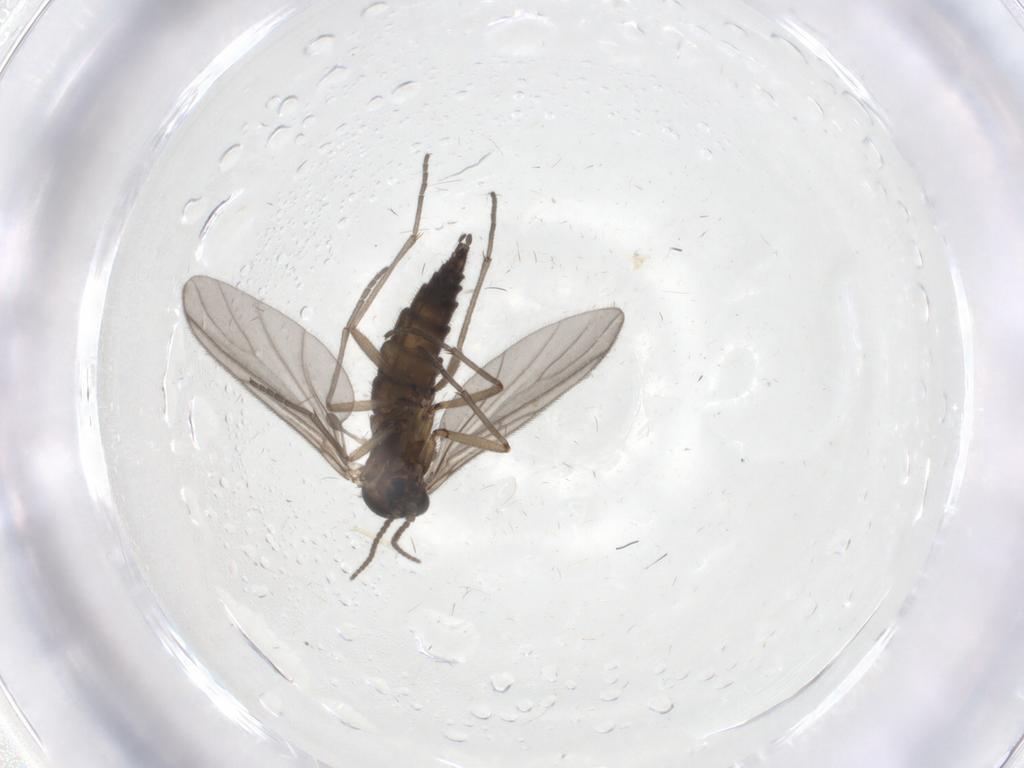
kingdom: Animalia
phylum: Arthropoda
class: Insecta
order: Diptera
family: Sciaridae
